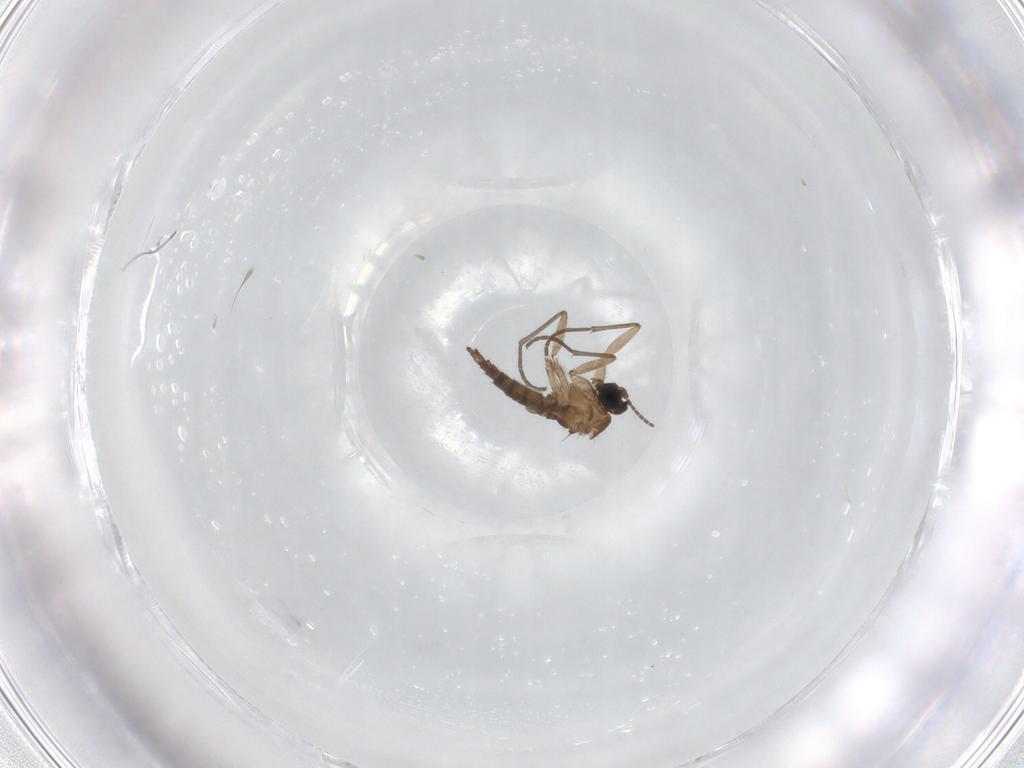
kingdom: Animalia
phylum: Arthropoda
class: Insecta
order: Diptera
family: Sciaridae
